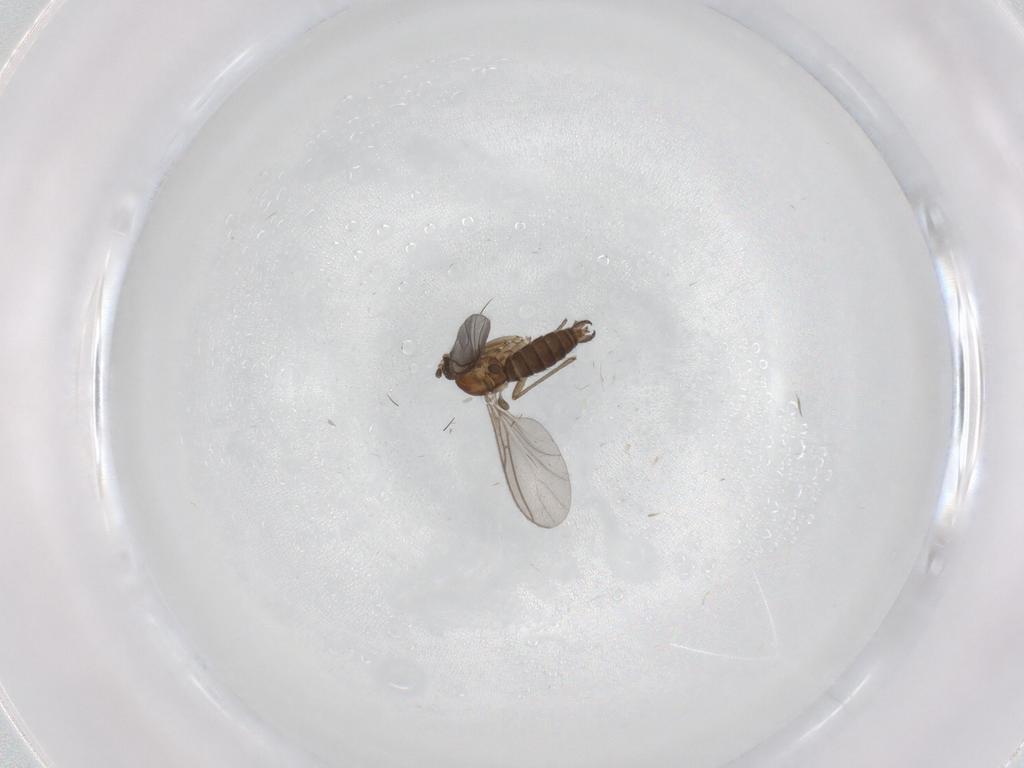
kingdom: Animalia
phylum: Arthropoda
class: Insecta
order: Diptera
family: Sciaridae
